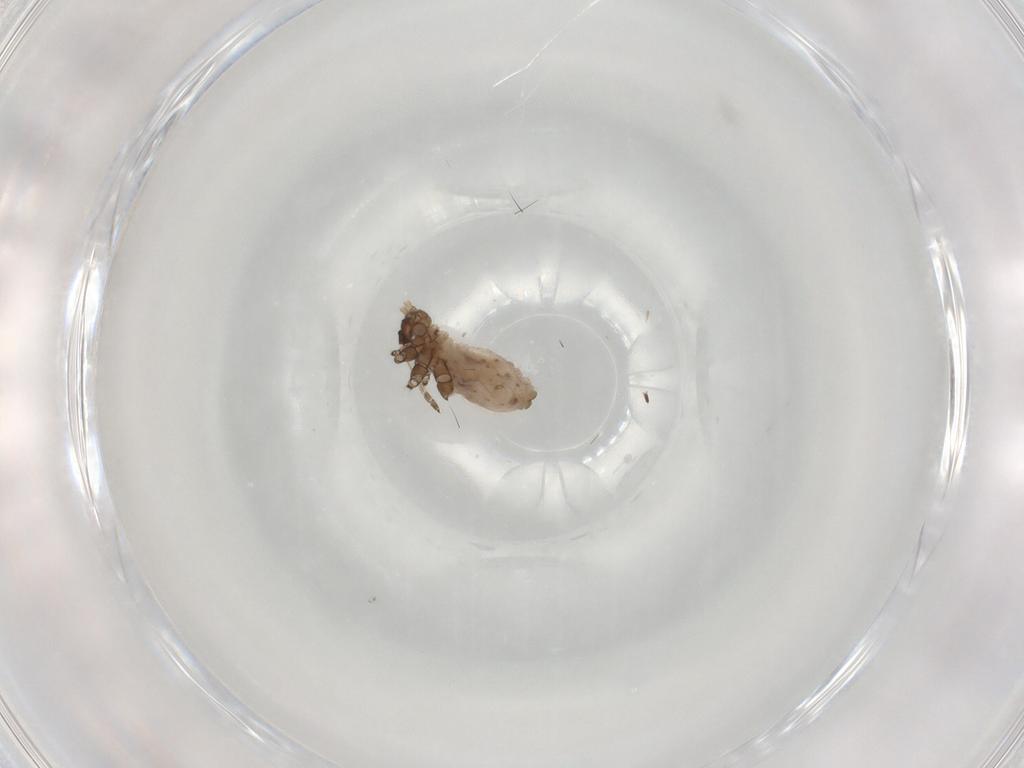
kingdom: Animalia
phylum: Arthropoda
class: Insecta
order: Hemiptera
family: Aphididae
